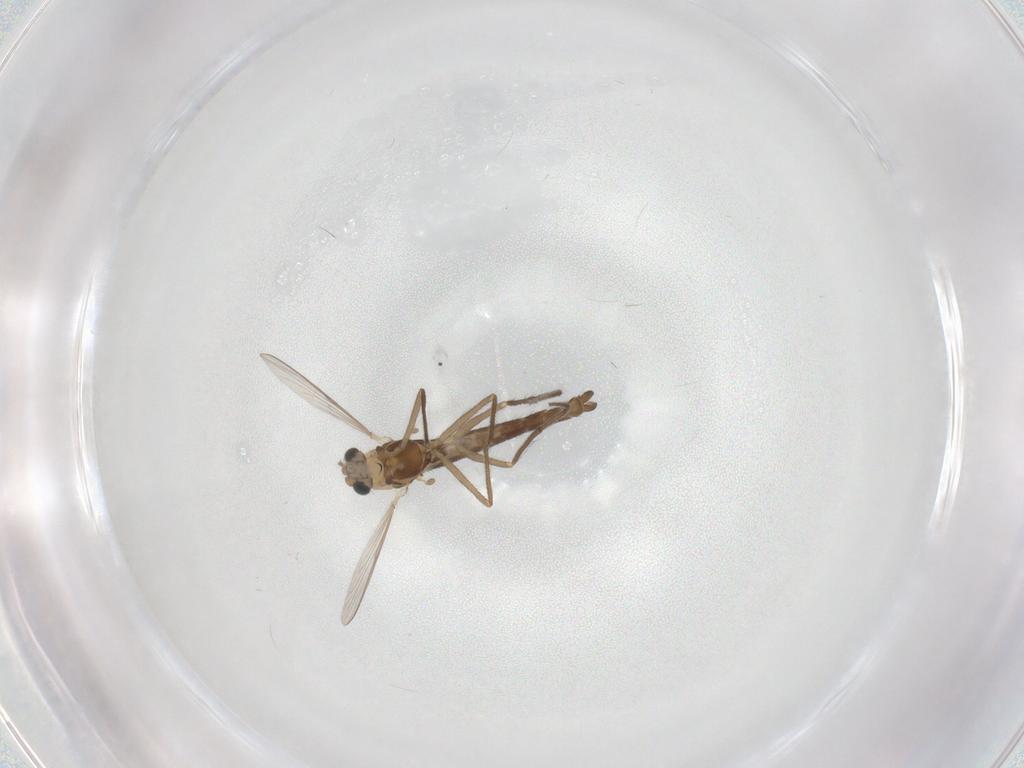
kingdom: Animalia
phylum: Arthropoda
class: Insecta
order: Diptera
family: Chironomidae
